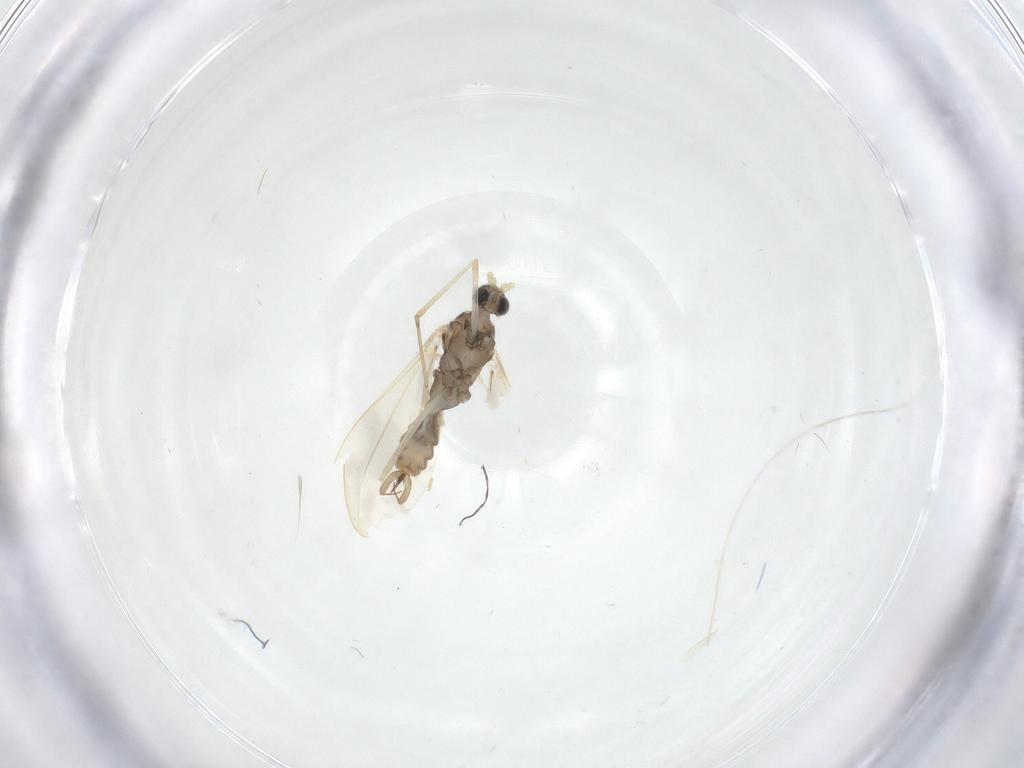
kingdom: Animalia
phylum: Arthropoda
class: Insecta
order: Diptera
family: Cecidomyiidae
